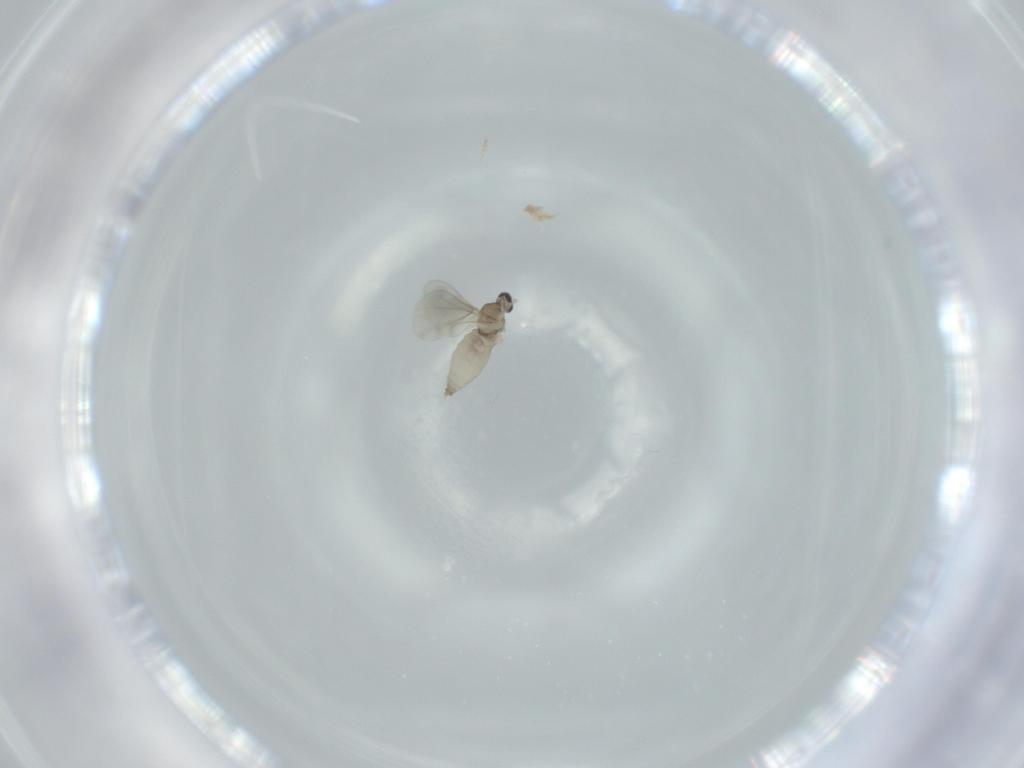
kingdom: Animalia
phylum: Arthropoda
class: Insecta
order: Diptera
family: Cecidomyiidae
